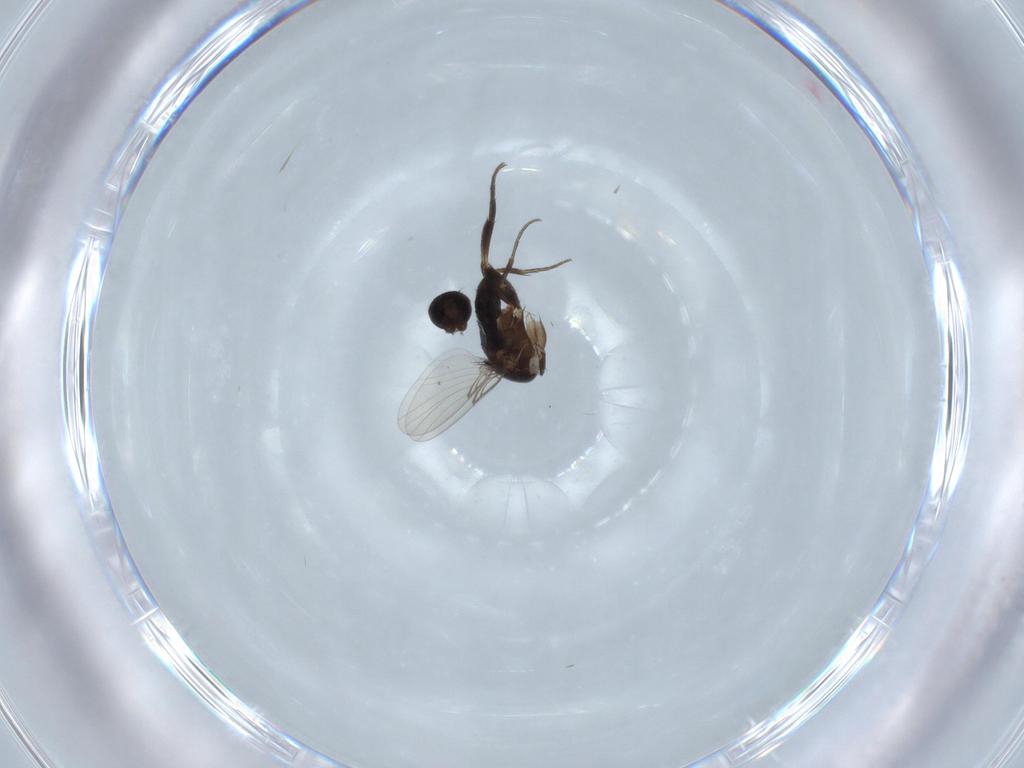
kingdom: Animalia
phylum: Arthropoda
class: Insecta
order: Diptera
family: Phoridae
